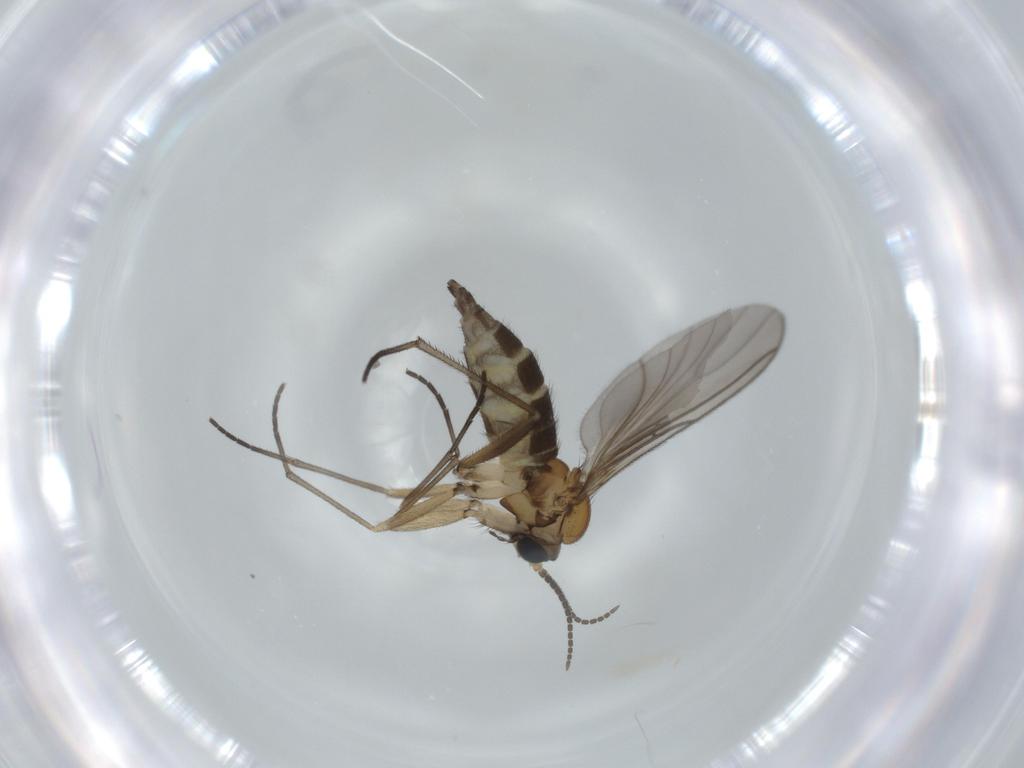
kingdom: Animalia
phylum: Arthropoda
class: Insecta
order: Diptera
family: Sciaridae
